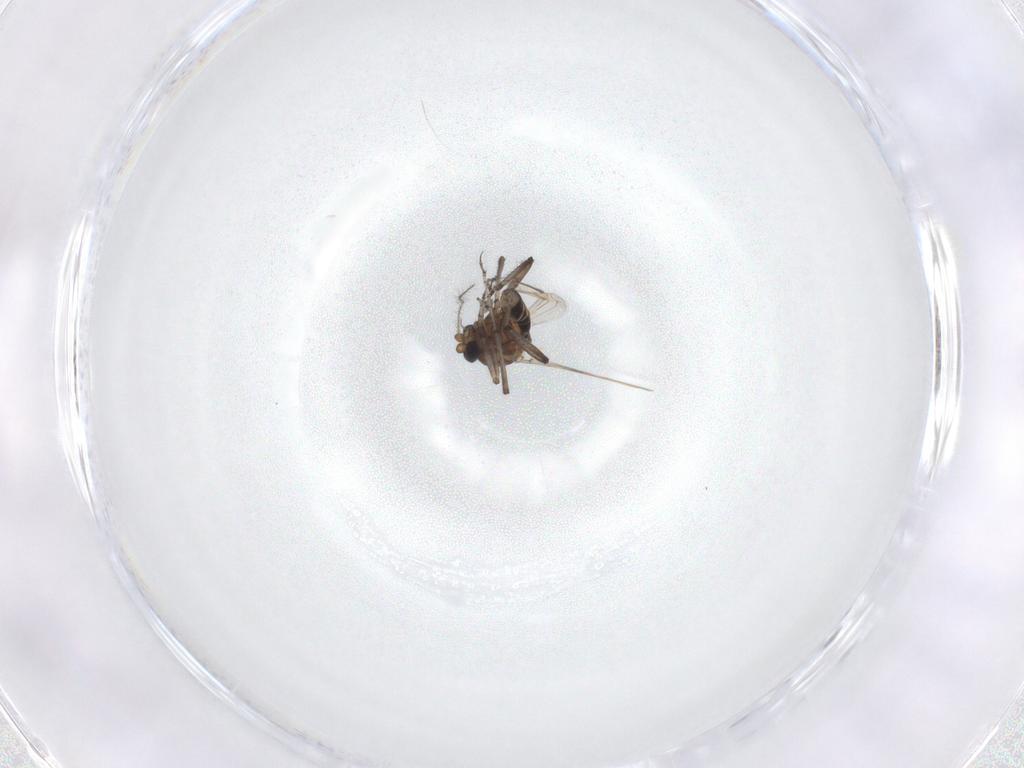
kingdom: Animalia
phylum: Arthropoda
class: Insecta
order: Diptera
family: Ceratopogonidae
